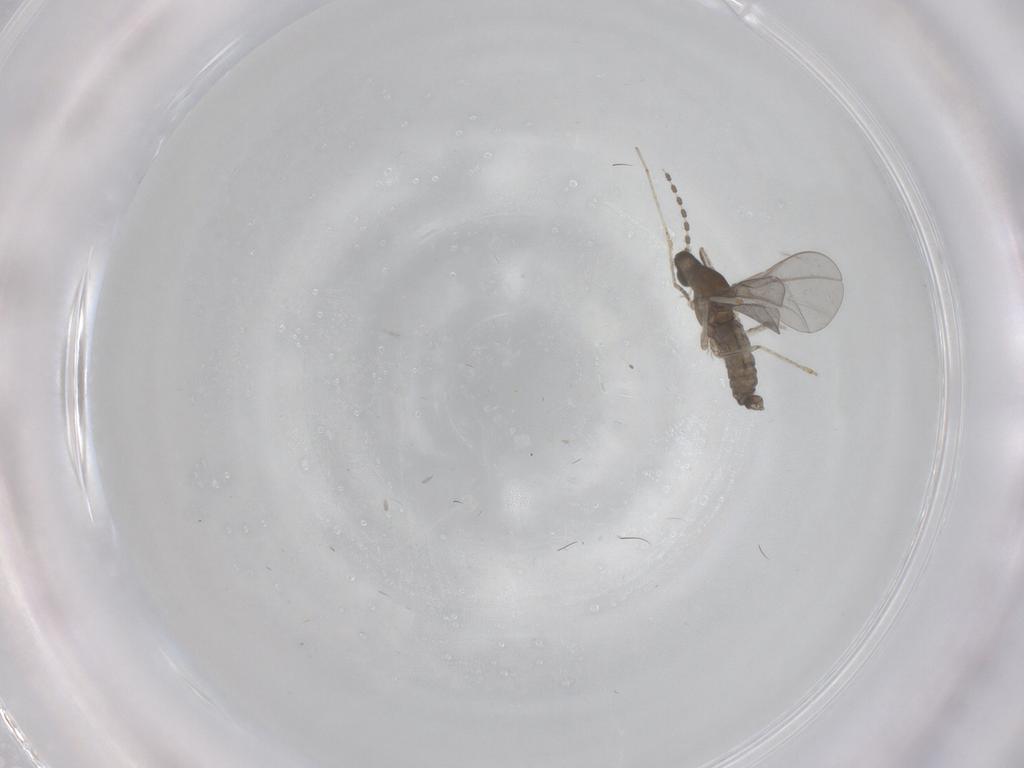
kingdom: Animalia
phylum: Arthropoda
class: Insecta
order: Diptera
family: Cecidomyiidae
